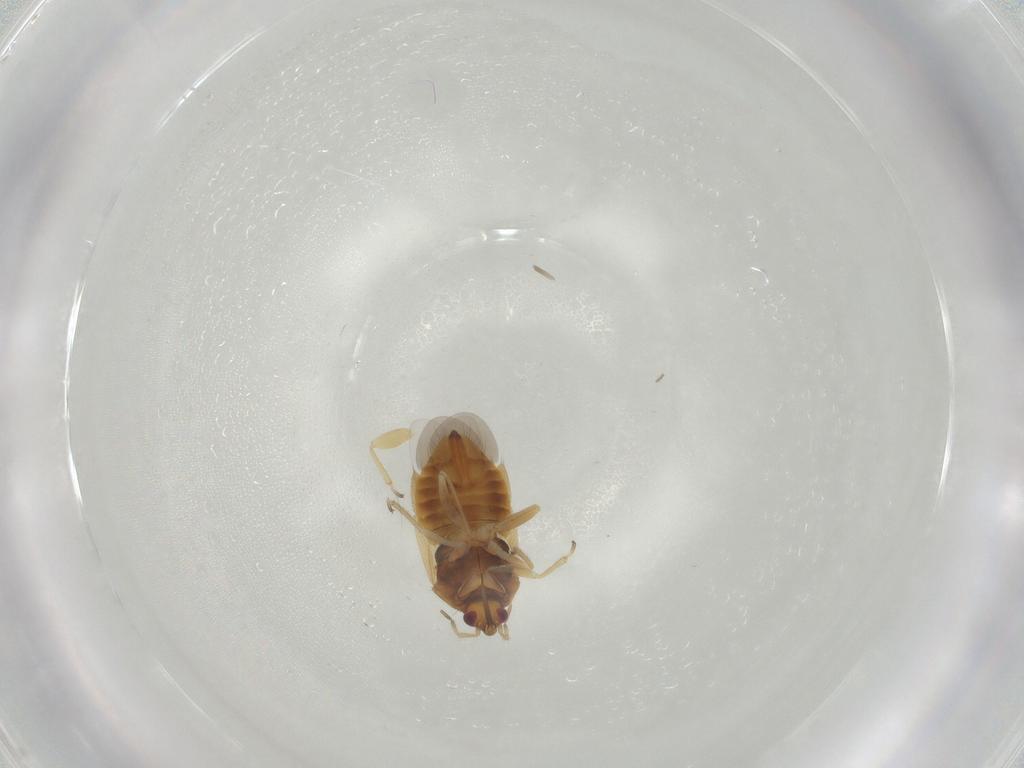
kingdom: Animalia
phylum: Arthropoda
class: Insecta
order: Hemiptera
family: Anthocoridae
